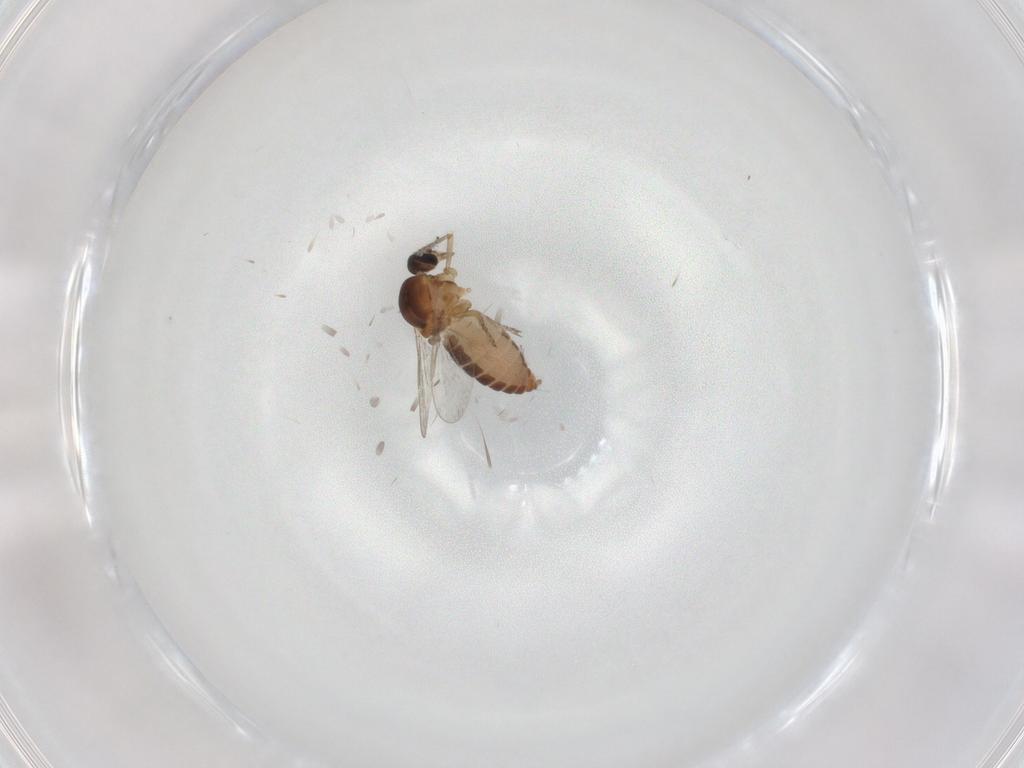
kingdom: Animalia
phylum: Arthropoda
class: Insecta
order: Diptera
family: Ceratopogonidae
